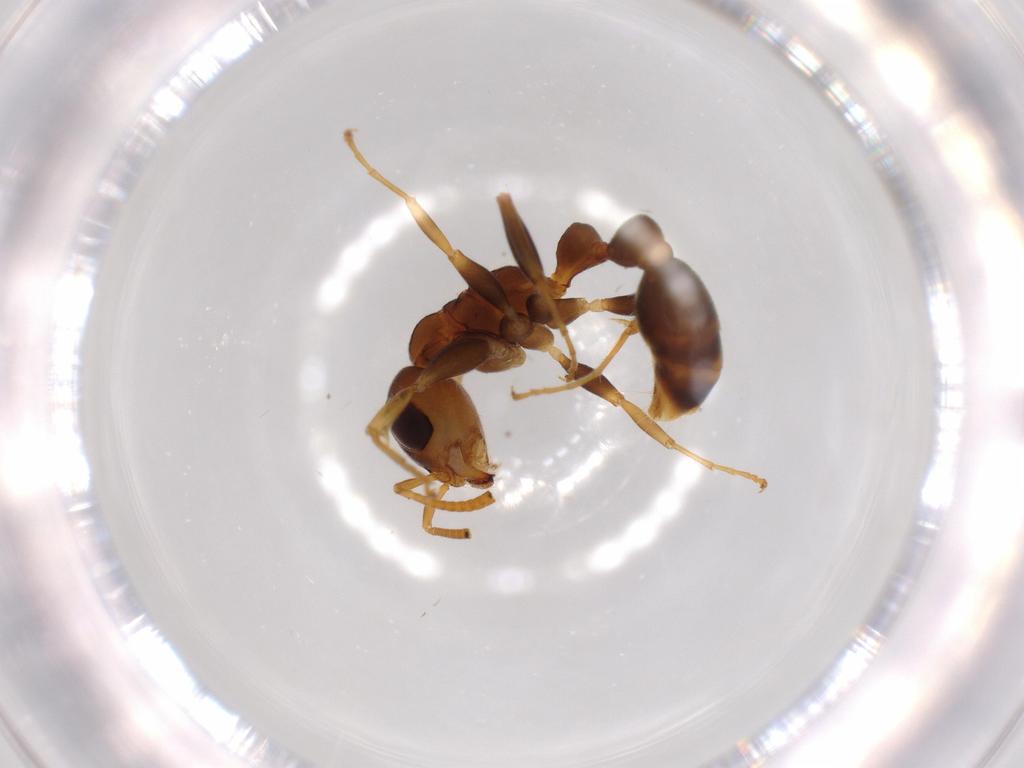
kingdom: Animalia
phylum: Arthropoda
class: Insecta
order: Hymenoptera
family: Formicidae
